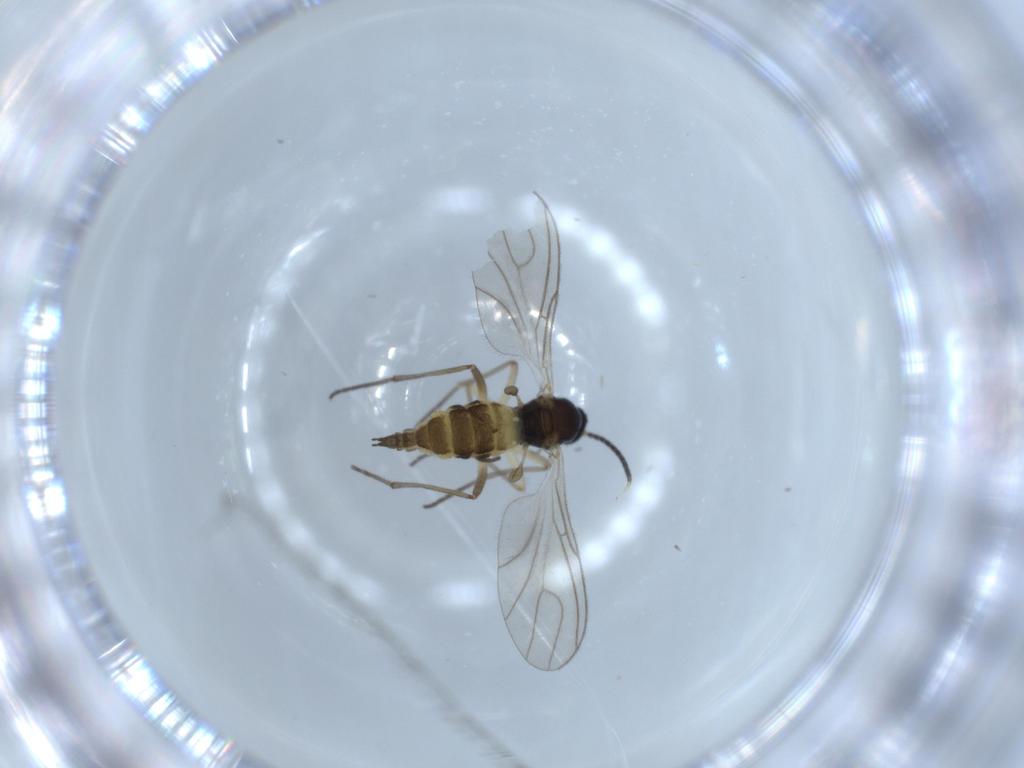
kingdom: Animalia
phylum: Arthropoda
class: Insecta
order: Diptera
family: Sciaridae
